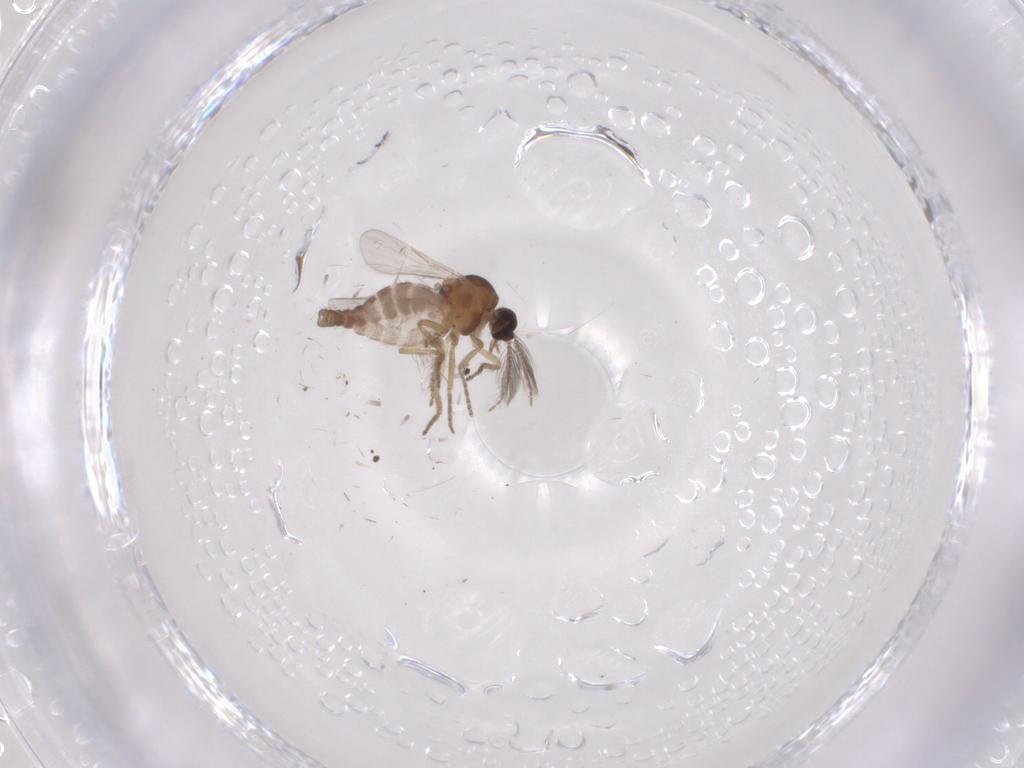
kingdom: Animalia
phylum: Arthropoda
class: Insecta
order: Diptera
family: Ceratopogonidae
